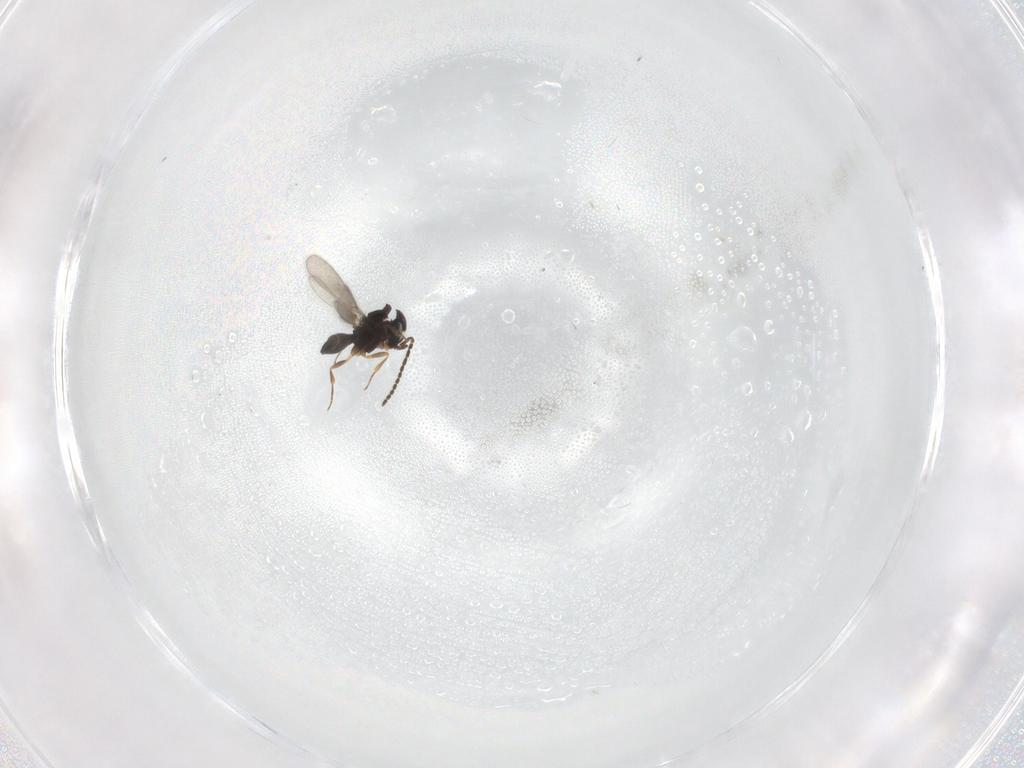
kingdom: Animalia
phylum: Arthropoda
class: Insecta
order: Hymenoptera
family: Scelionidae
